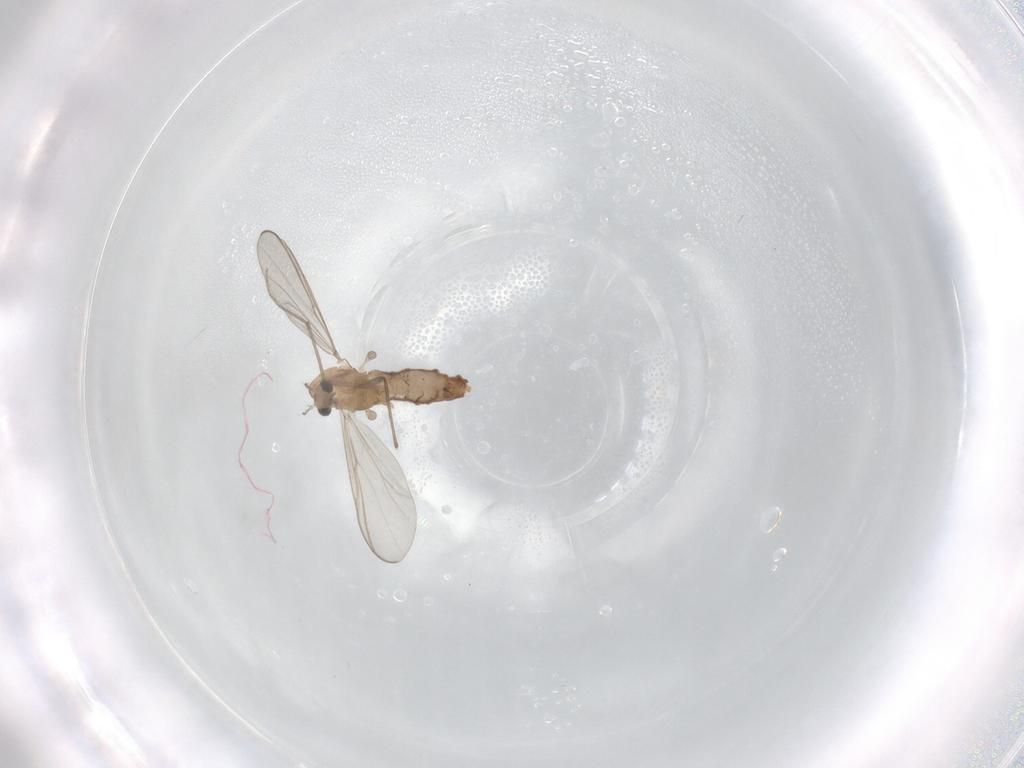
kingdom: Animalia
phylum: Arthropoda
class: Insecta
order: Diptera
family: Chironomidae
